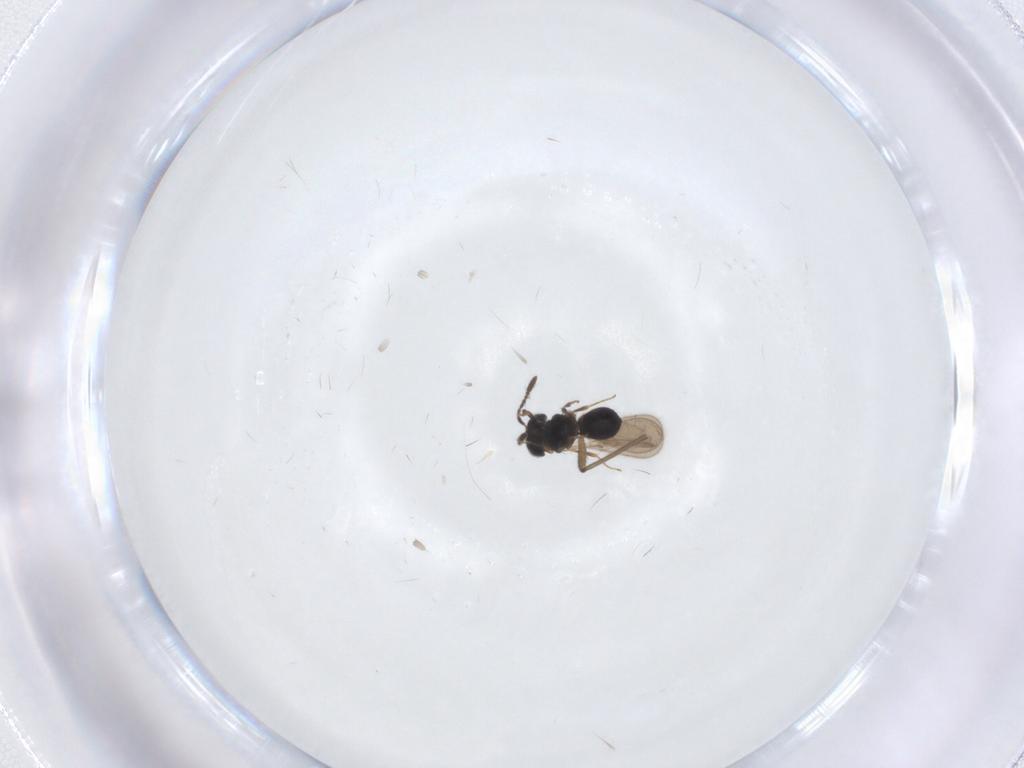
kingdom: Animalia
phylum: Arthropoda
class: Insecta
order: Hymenoptera
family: Scelionidae
